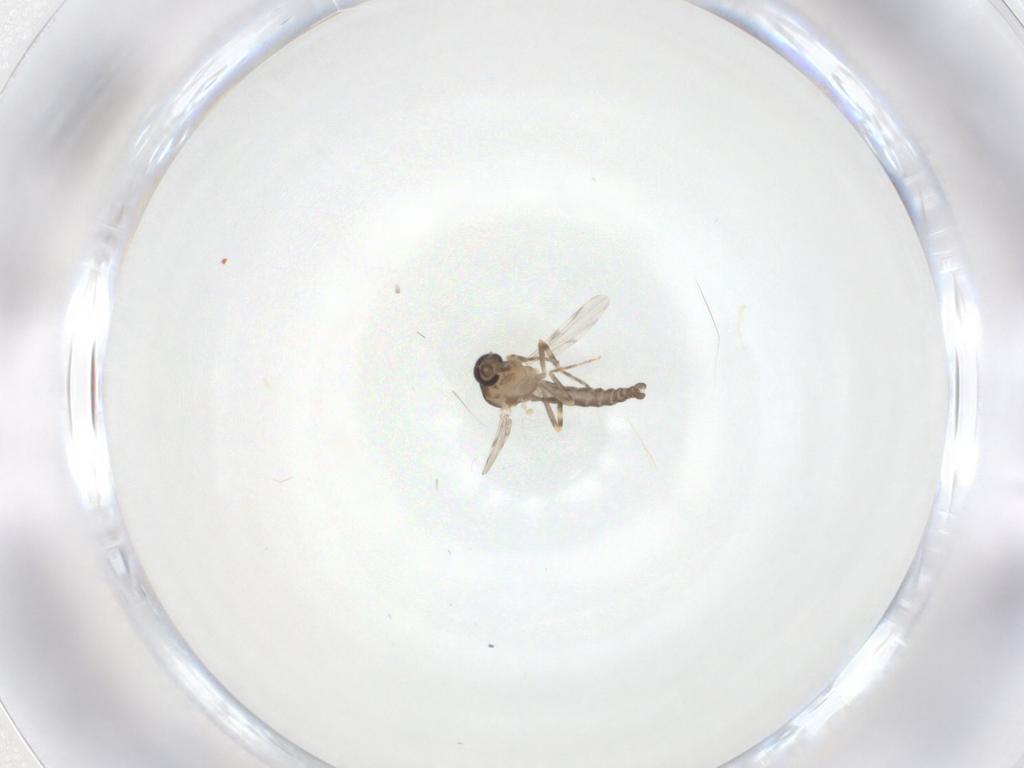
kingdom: Animalia
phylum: Arthropoda
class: Insecta
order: Diptera
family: Ceratopogonidae
